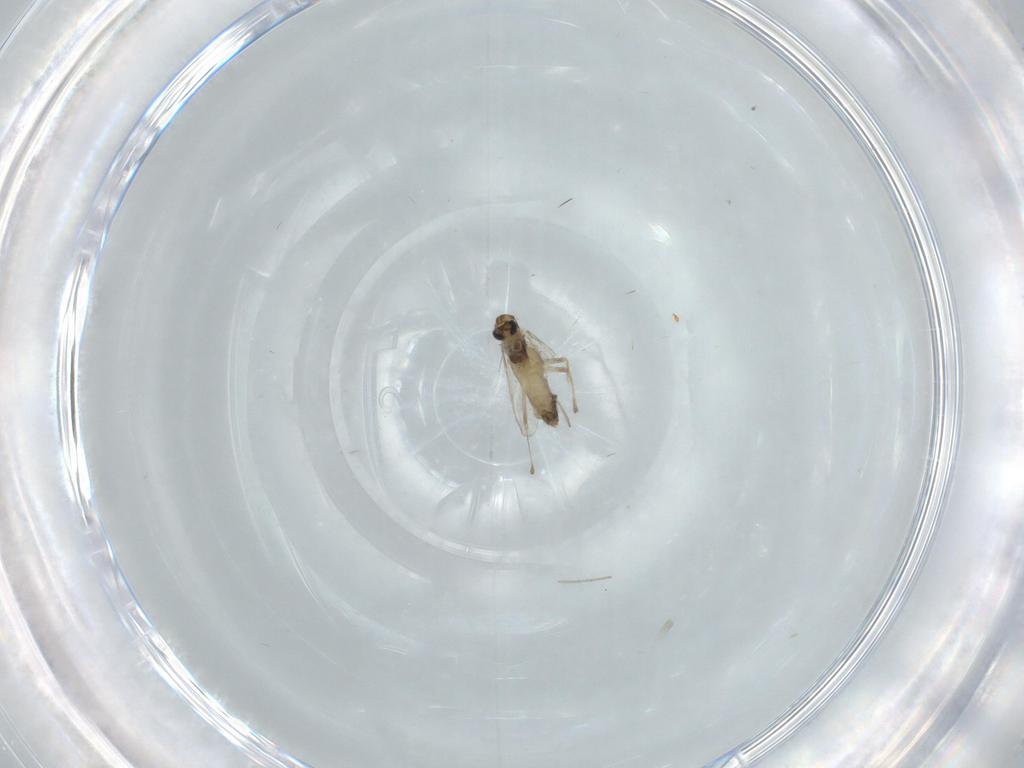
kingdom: Animalia
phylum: Arthropoda
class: Insecta
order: Diptera
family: Chironomidae
